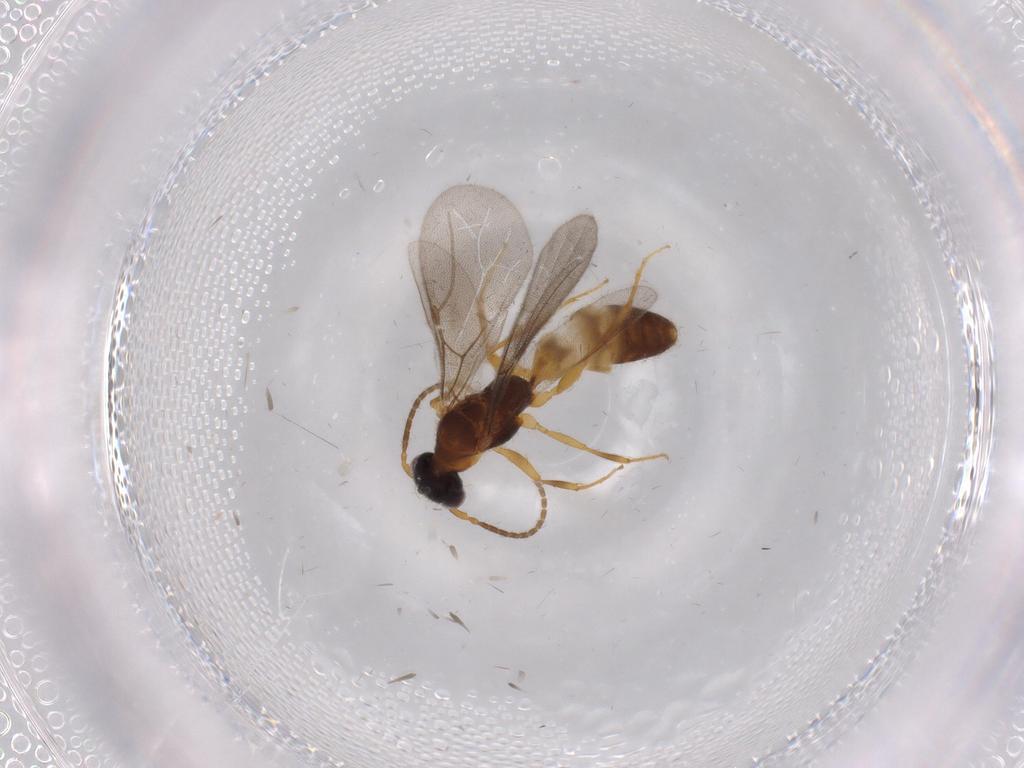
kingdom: Animalia
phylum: Arthropoda
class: Insecta
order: Hymenoptera
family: Bethylidae
